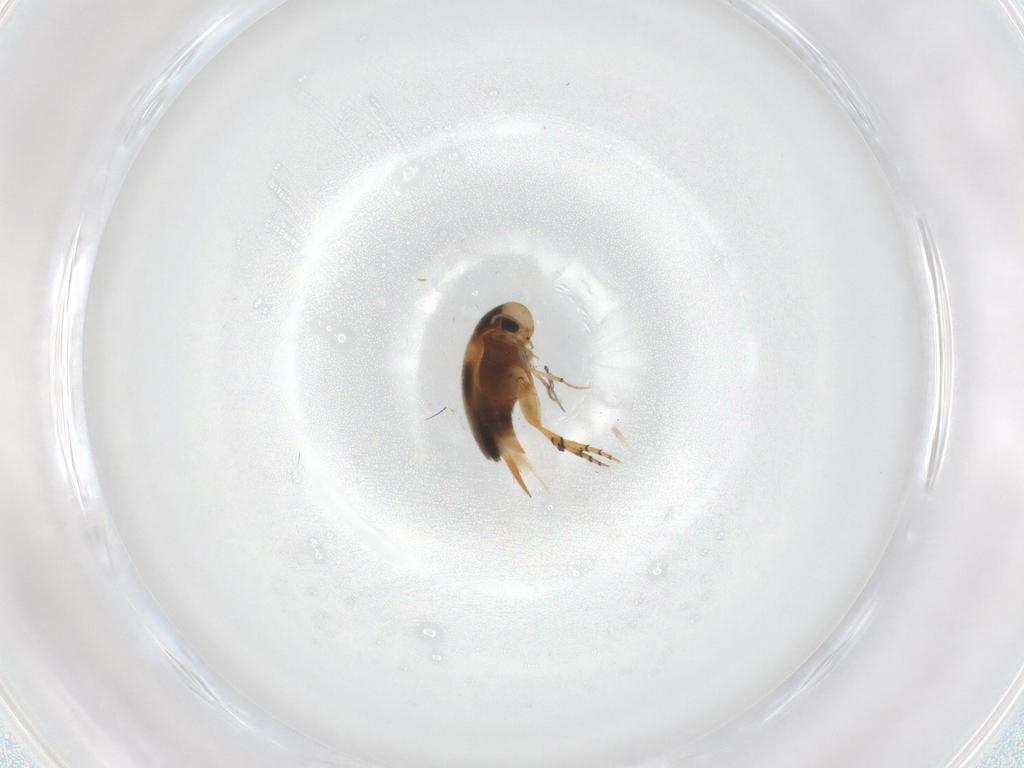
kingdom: Animalia
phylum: Arthropoda
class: Insecta
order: Coleoptera
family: Mordellidae
